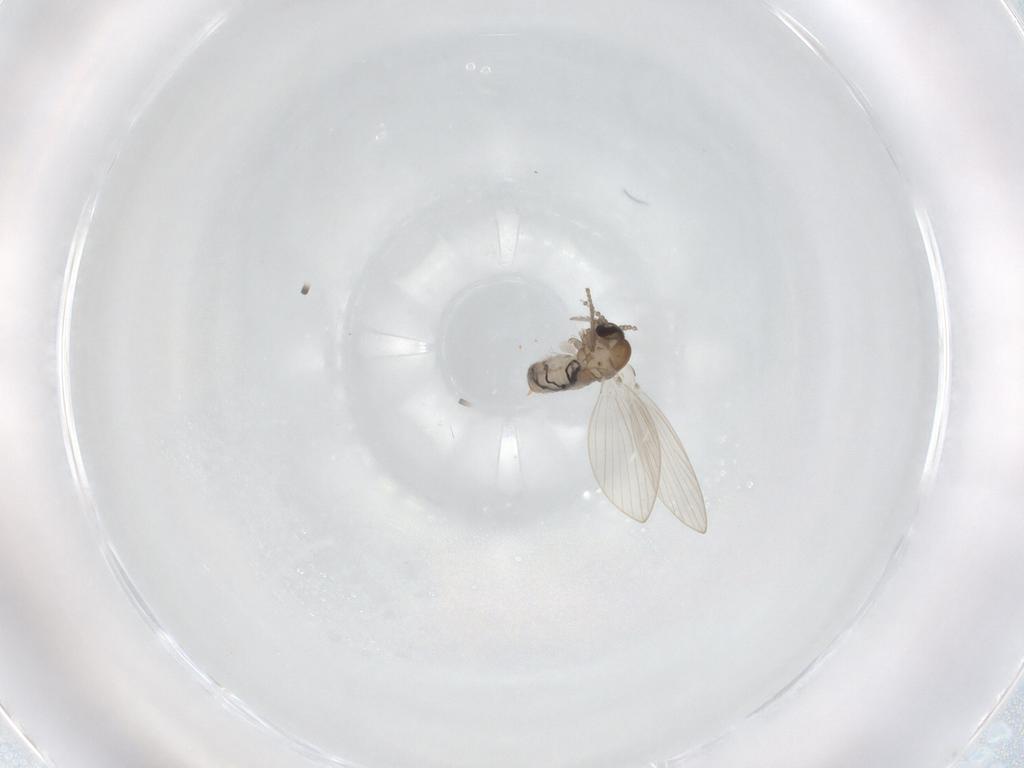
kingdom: Animalia
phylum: Arthropoda
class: Insecta
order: Diptera
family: Psychodidae
